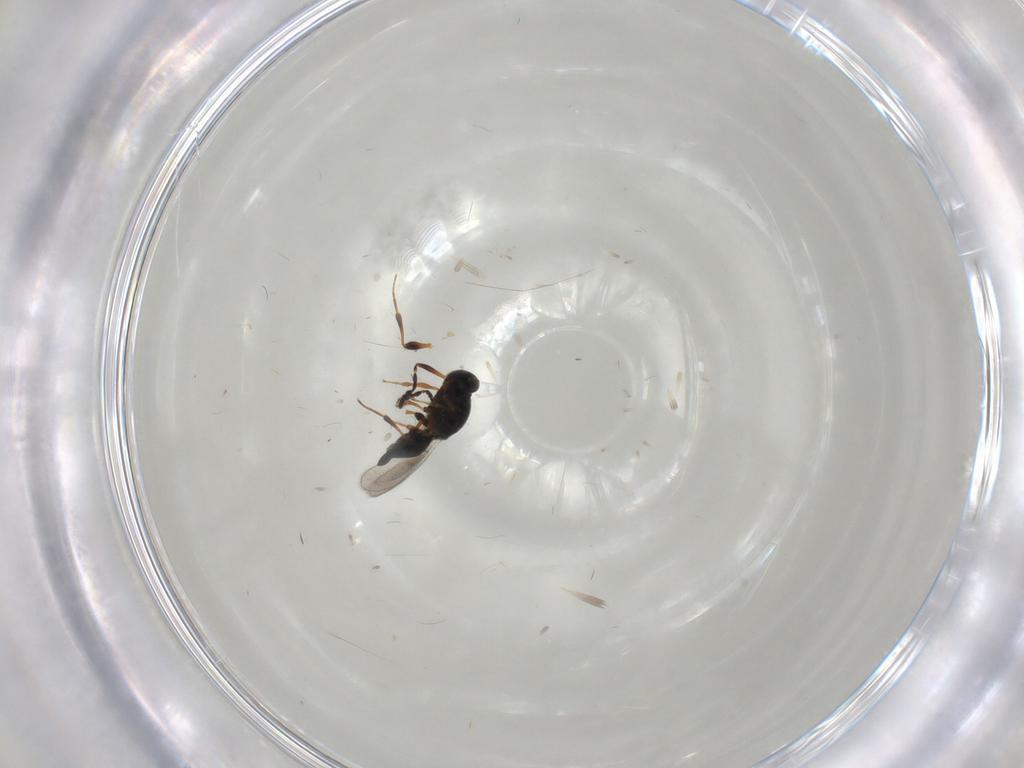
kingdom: Animalia
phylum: Arthropoda
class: Insecta
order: Hymenoptera
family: Platygastridae
